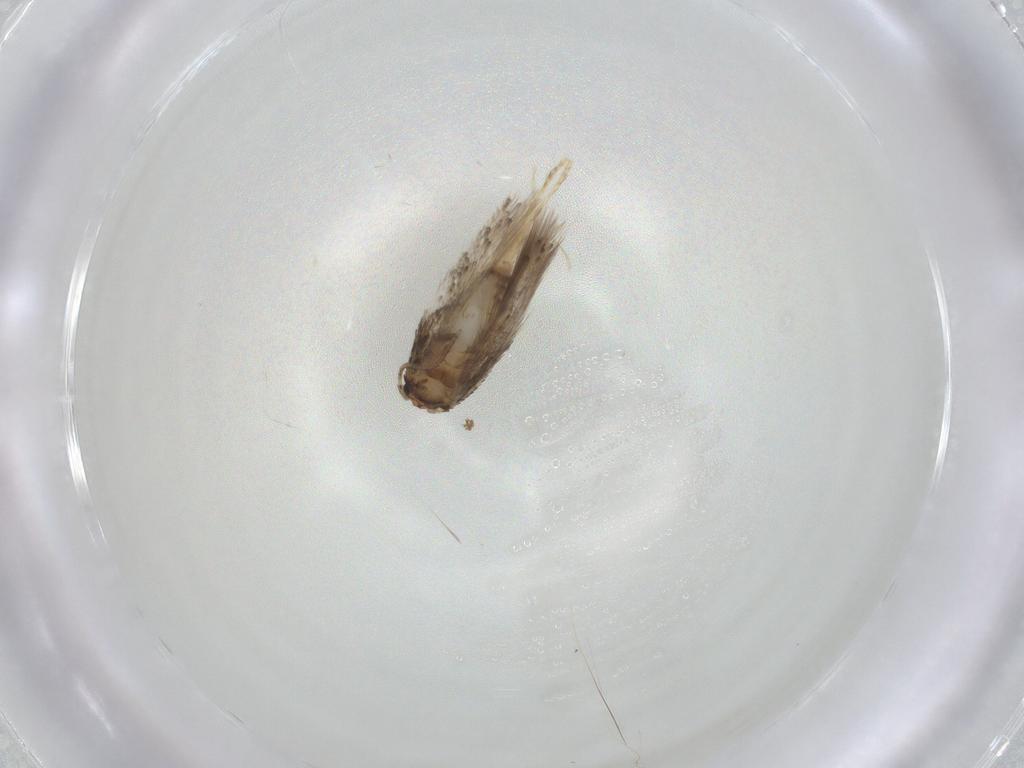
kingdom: Animalia
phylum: Arthropoda
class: Insecta
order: Lepidoptera
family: Nepticulidae
